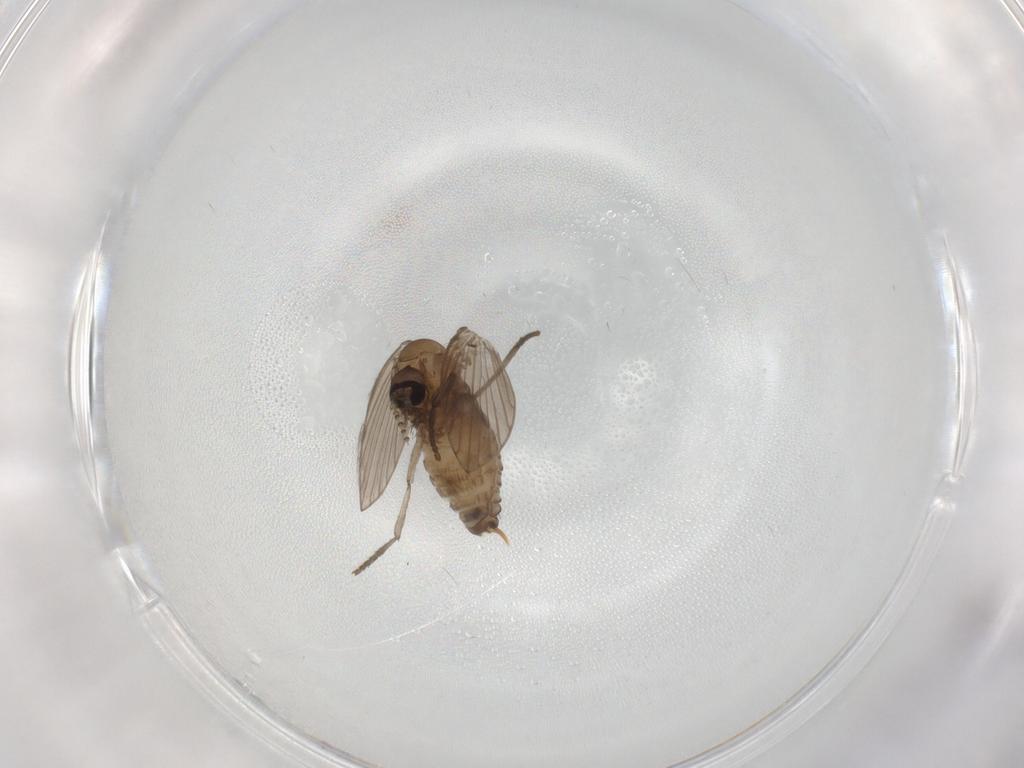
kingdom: Animalia
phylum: Arthropoda
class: Insecta
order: Diptera
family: Psychodidae
